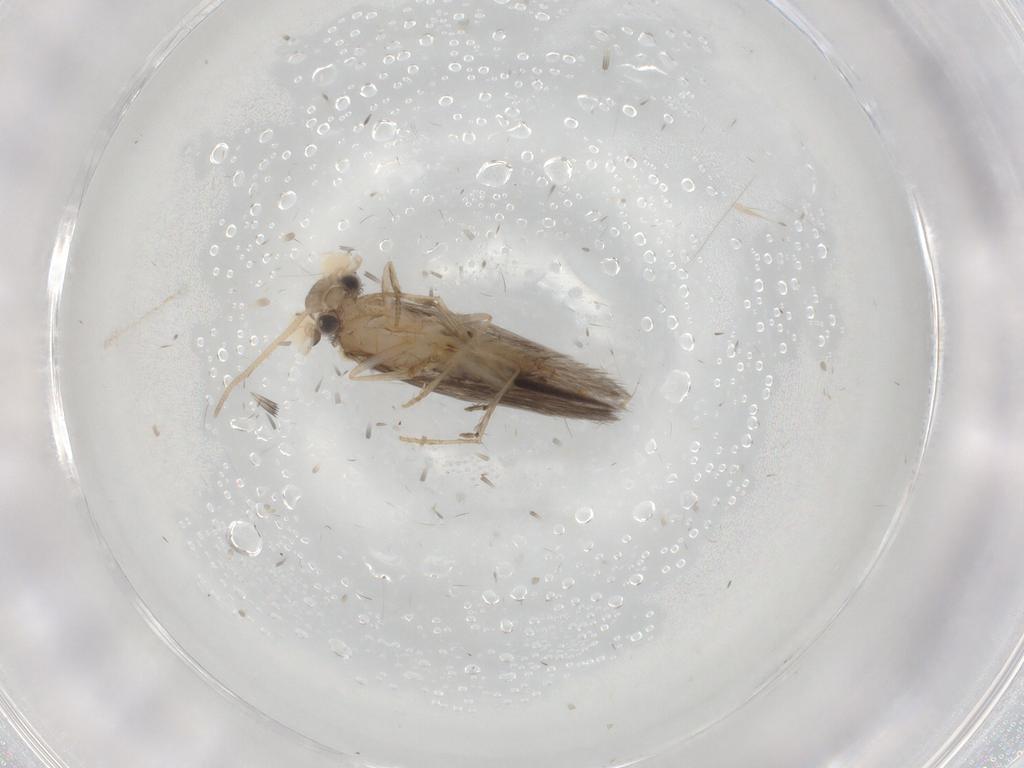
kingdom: Animalia
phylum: Arthropoda
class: Insecta
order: Trichoptera
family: Hydroptilidae
